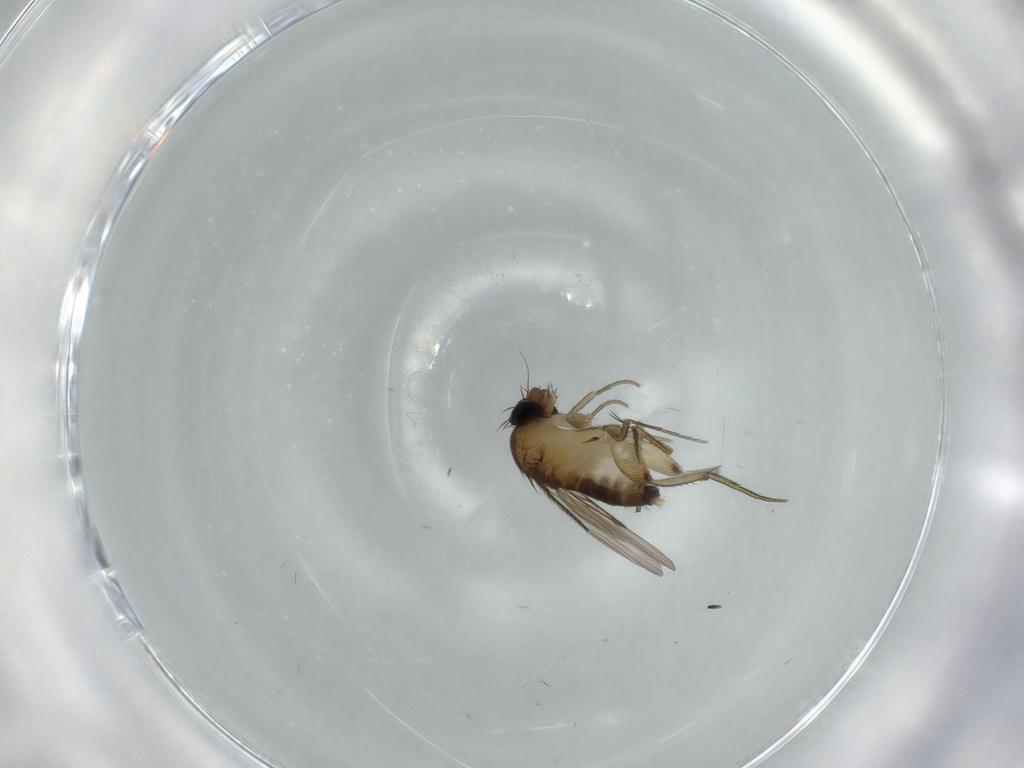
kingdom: Animalia
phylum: Arthropoda
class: Insecta
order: Diptera
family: Phoridae
